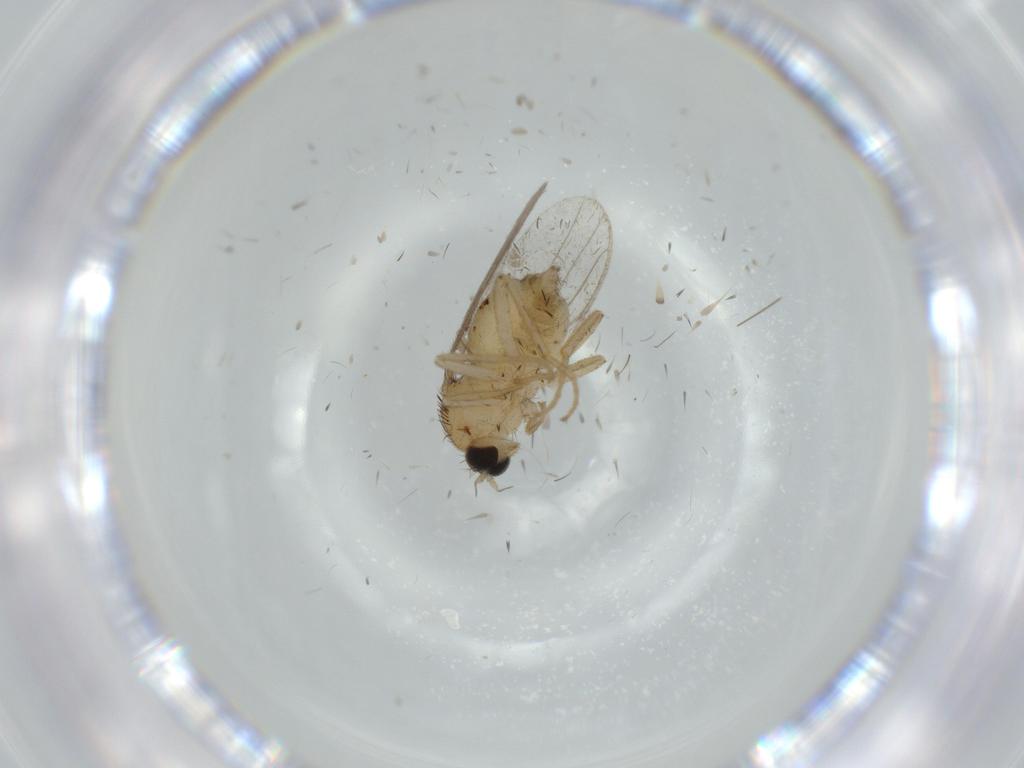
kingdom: Animalia
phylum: Arthropoda
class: Insecta
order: Diptera
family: Hybotidae
